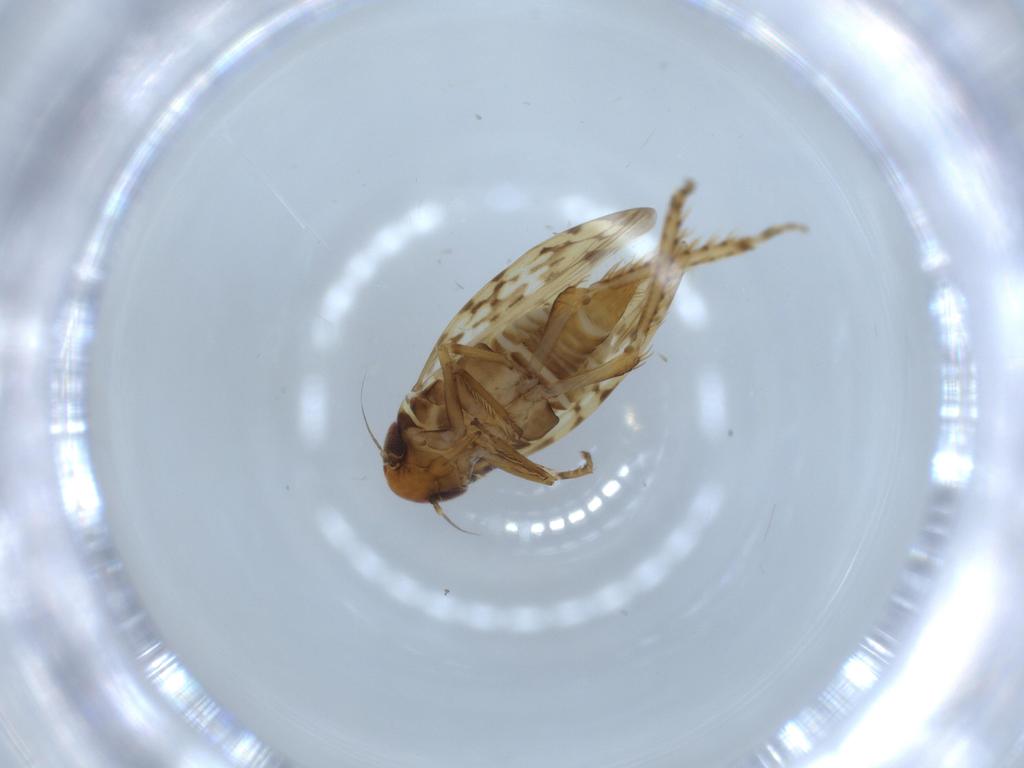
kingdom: Animalia
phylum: Arthropoda
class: Insecta
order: Hemiptera
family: Cicadellidae
